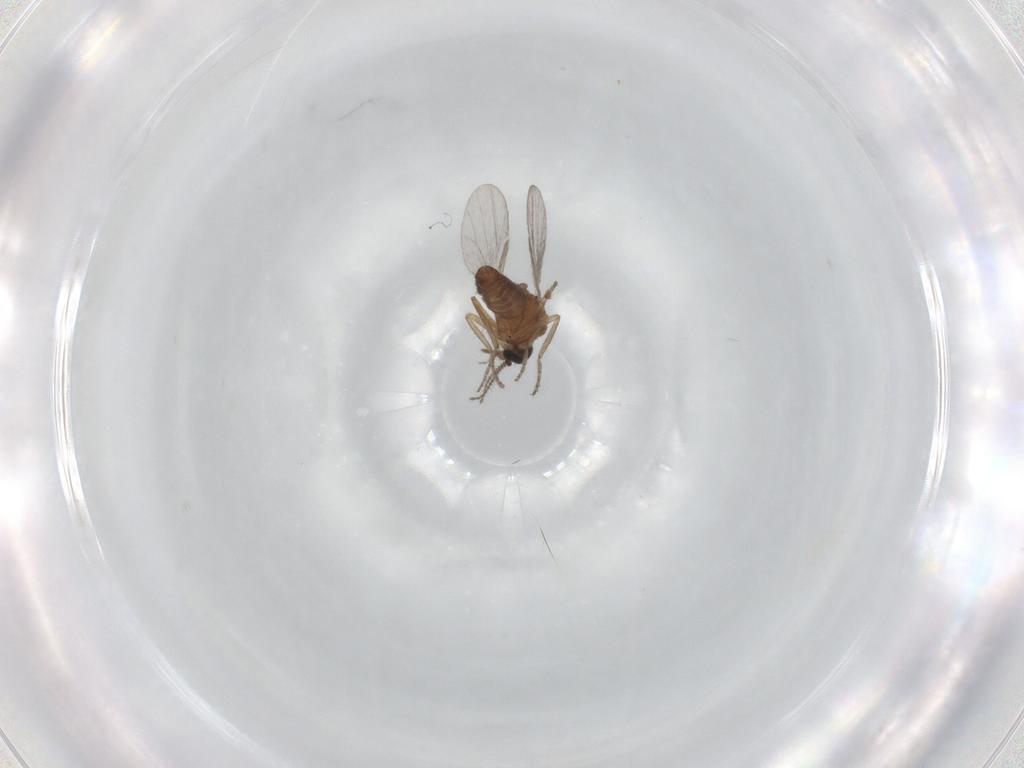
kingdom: Animalia
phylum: Arthropoda
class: Insecta
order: Diptera
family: Ceratopogonidae
